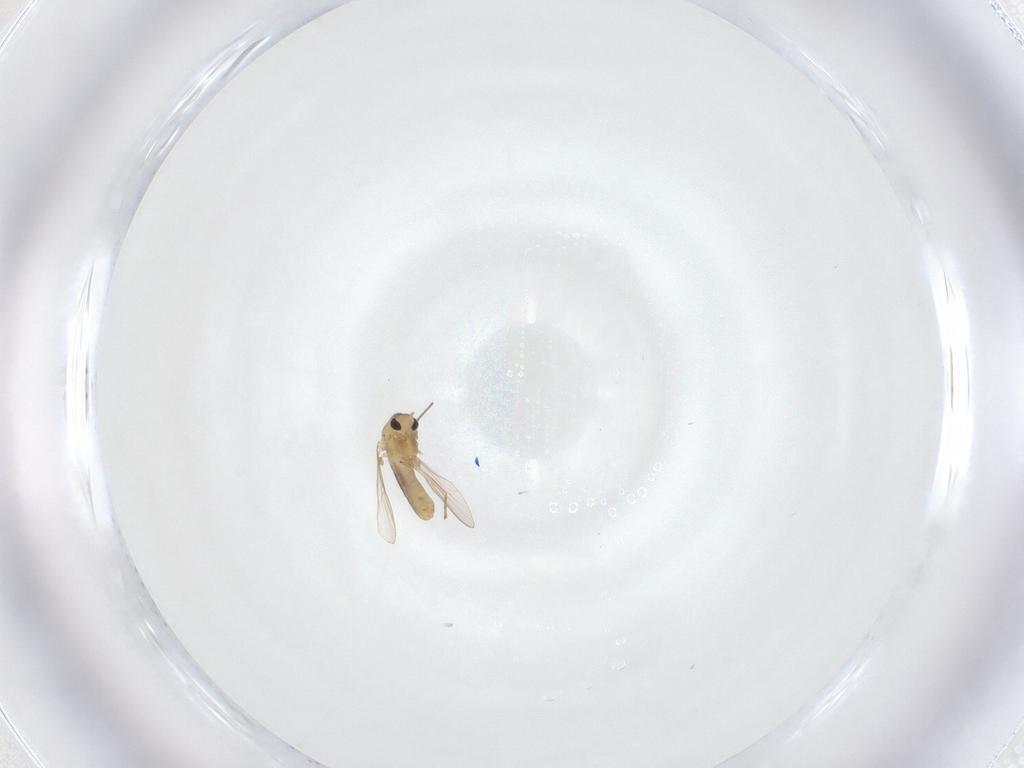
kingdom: Animalia
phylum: Arthropoda
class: Insecta
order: Diptera
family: Chironomidae
